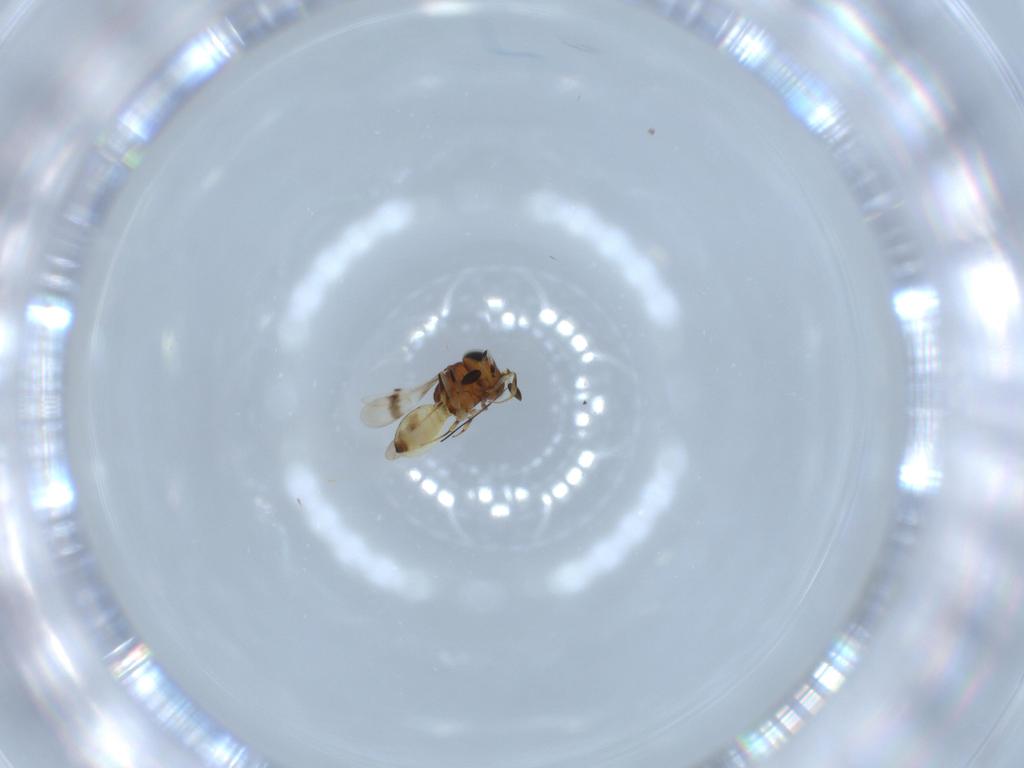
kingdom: Animalia
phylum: Arthropoda
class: Arachnida
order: Araneae
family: Pholcidae
